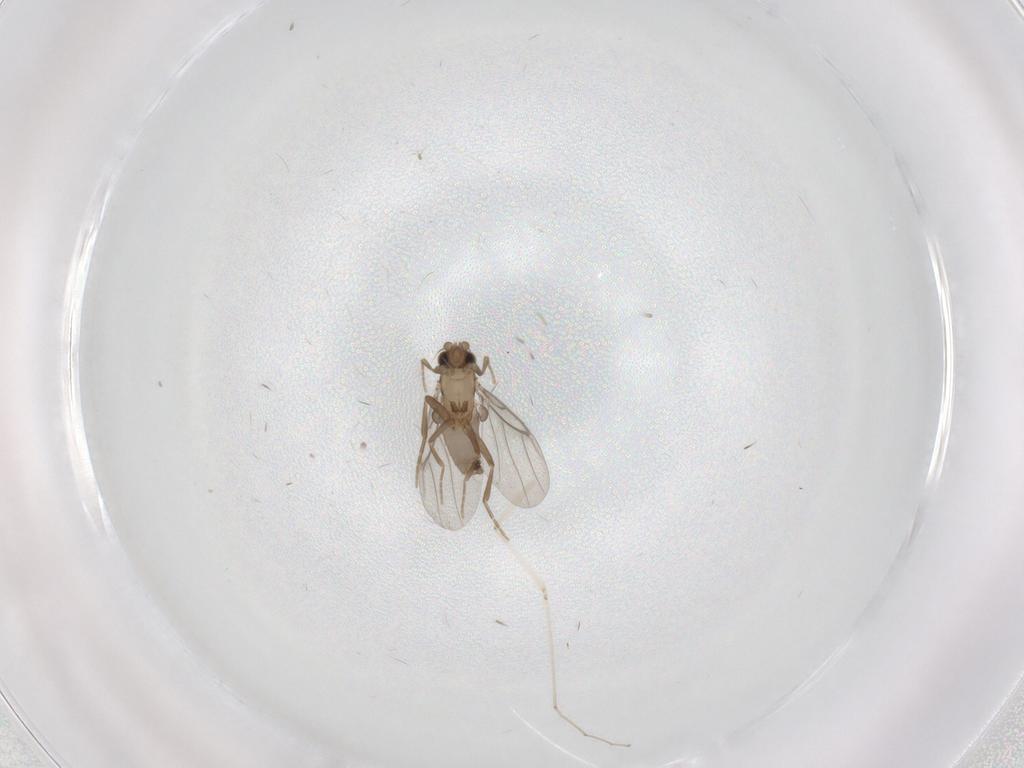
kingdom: Animalia
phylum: Arthropoda
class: Insecta
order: Diptera
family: Cecidomyiidae
